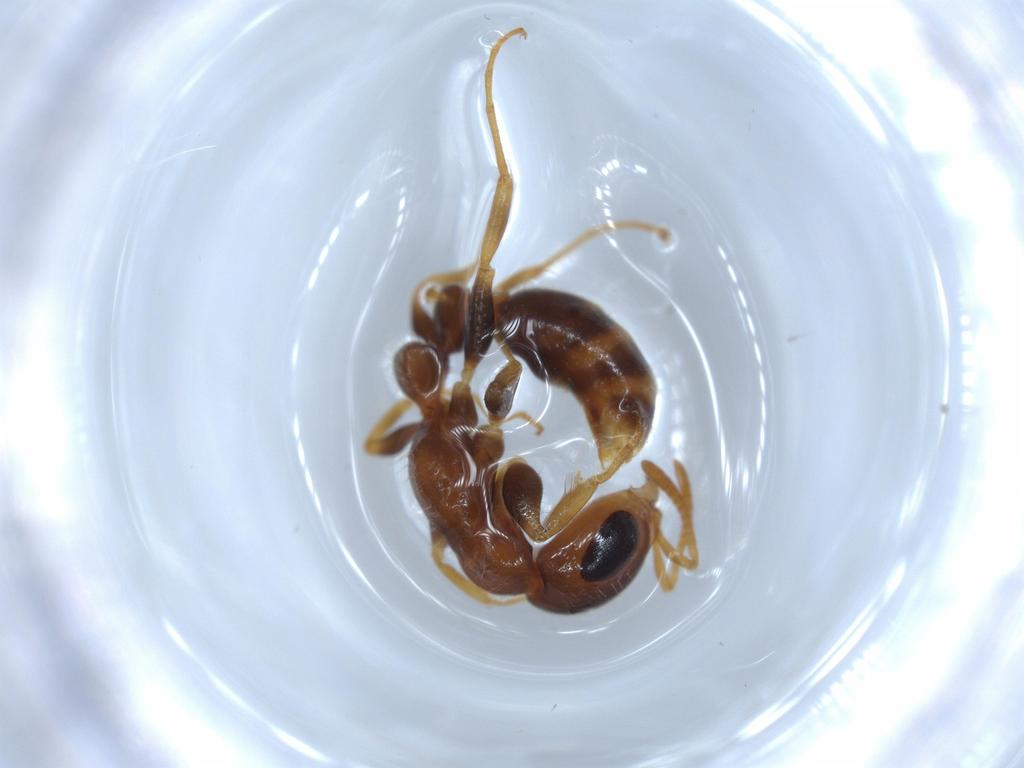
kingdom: Animalia
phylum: Arthropoda
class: Insecta
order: Hymenoptera
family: Formicidae
